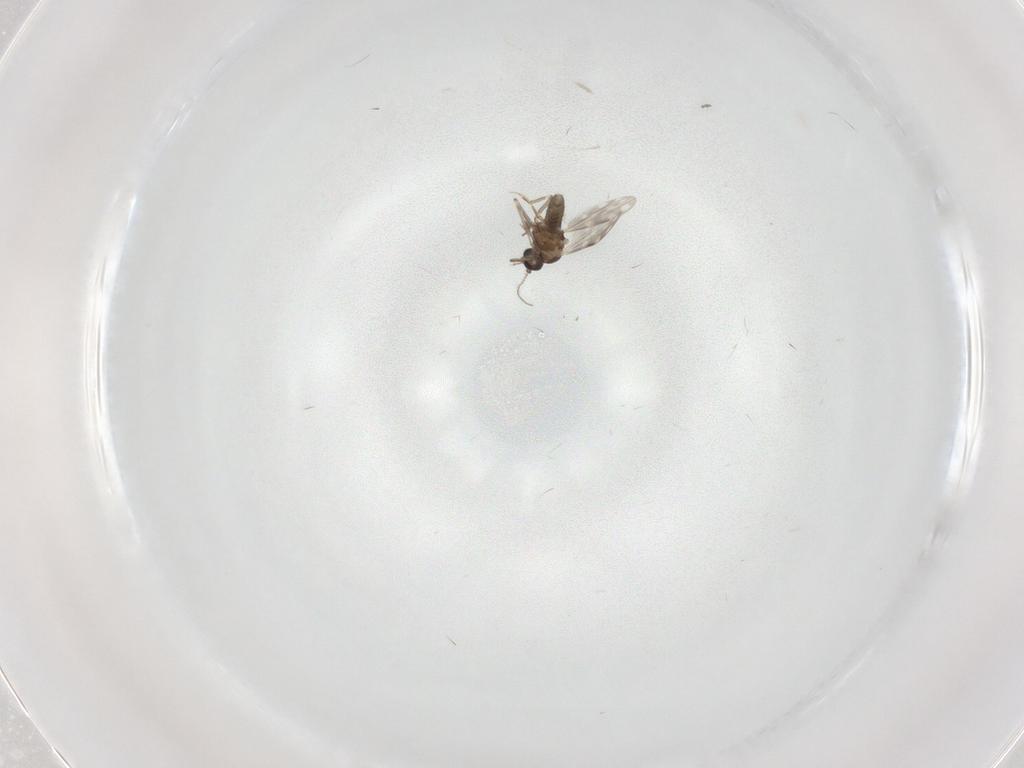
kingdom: Animalia
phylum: Arthropoda
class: Insecta
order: Diptera
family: Cecidomyiidae
